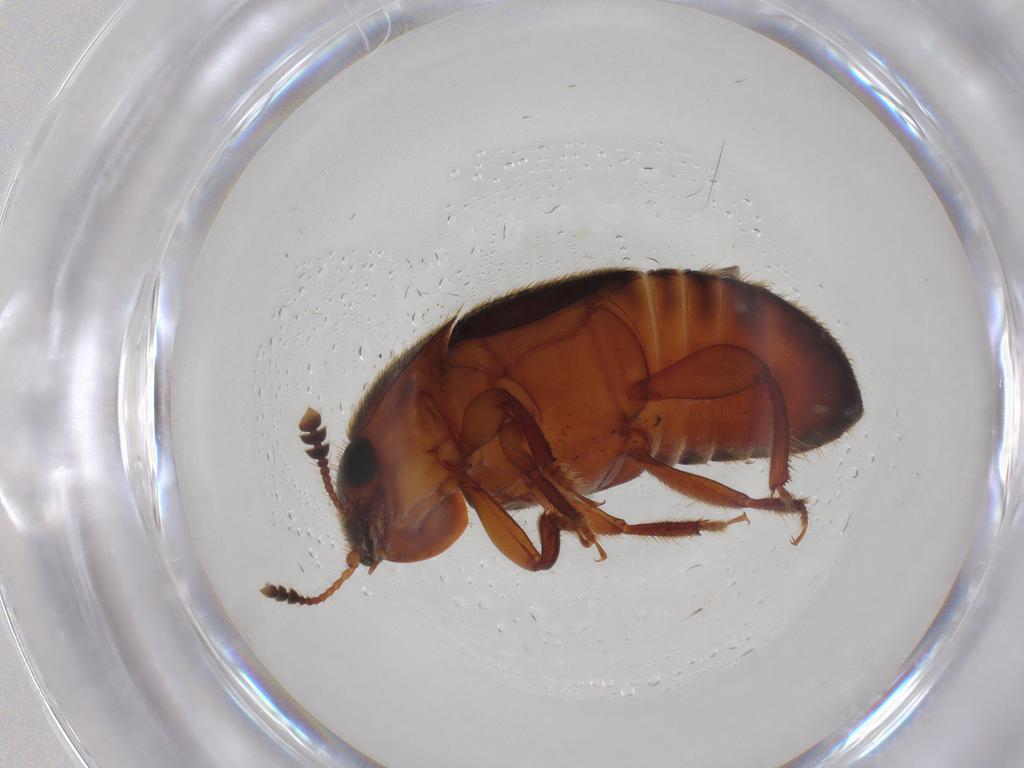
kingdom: Animalia
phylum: Arthropoda
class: Insecta
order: Coleoptera
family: Nitidulidae
